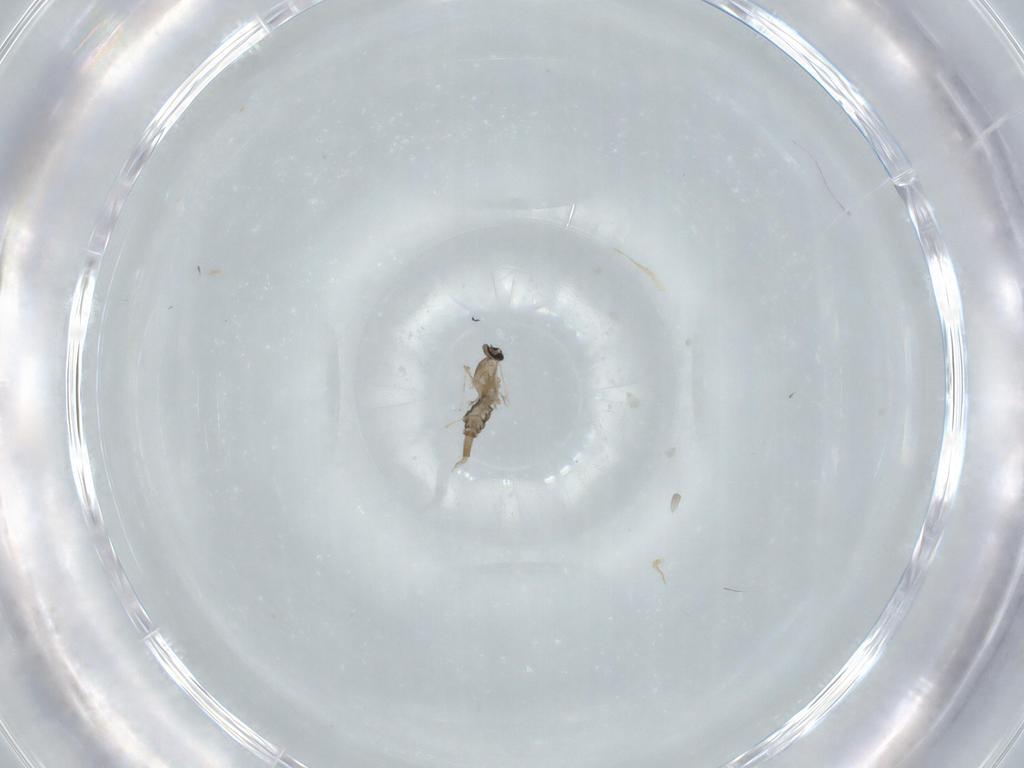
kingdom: Animalia
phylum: Arthropoda
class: Insecta
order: Diptera
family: Cecidomyiidae
